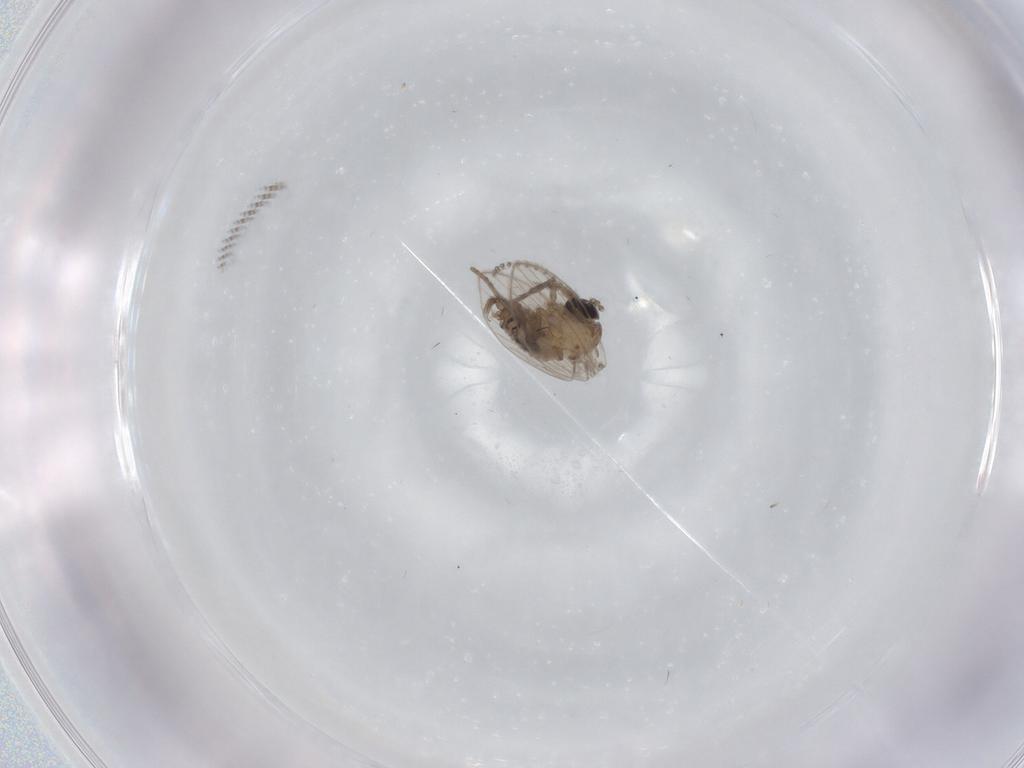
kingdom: Animalia
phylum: Arthropoda
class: Insecta
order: Diptera
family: Psychodidae
